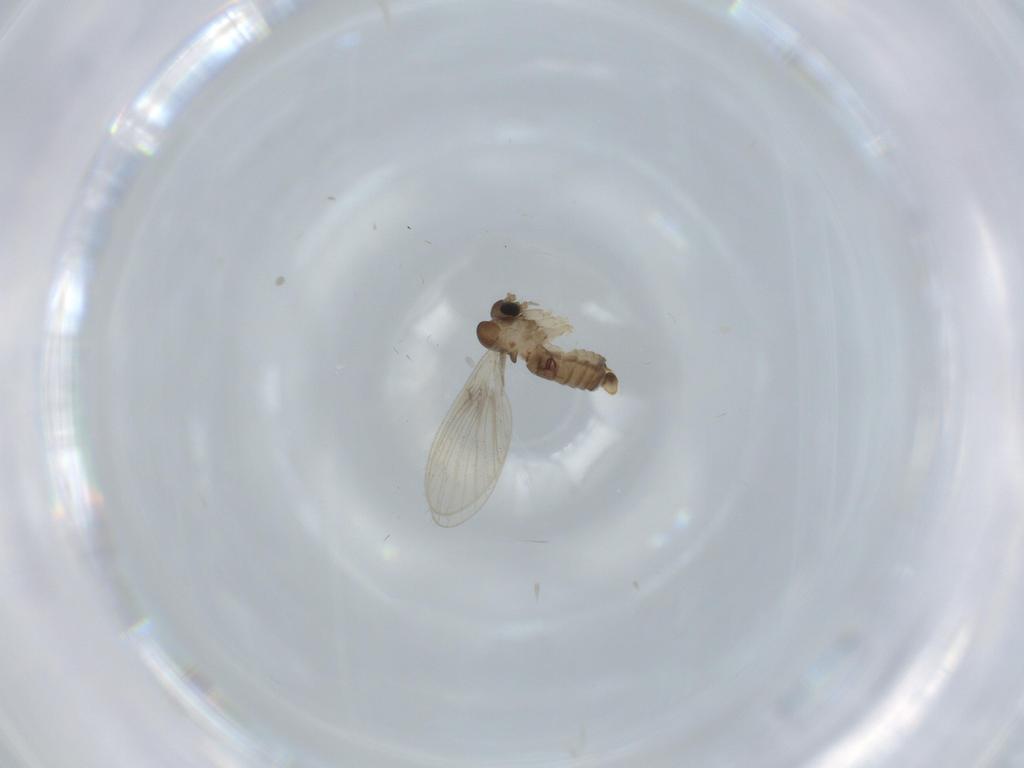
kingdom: Animalia
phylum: Arthropoda
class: Insecta
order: Diptera
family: Psychodidae
